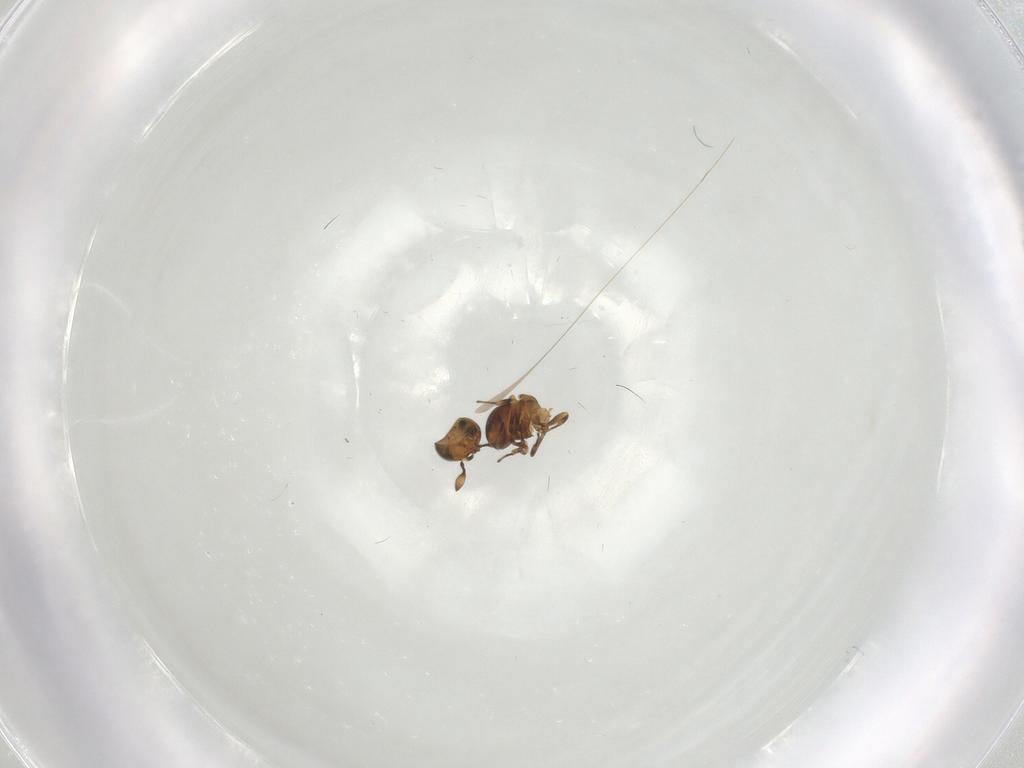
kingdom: Animalia
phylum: Arthropoda
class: Insecta
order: Hymenoptera
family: Scelionidae
